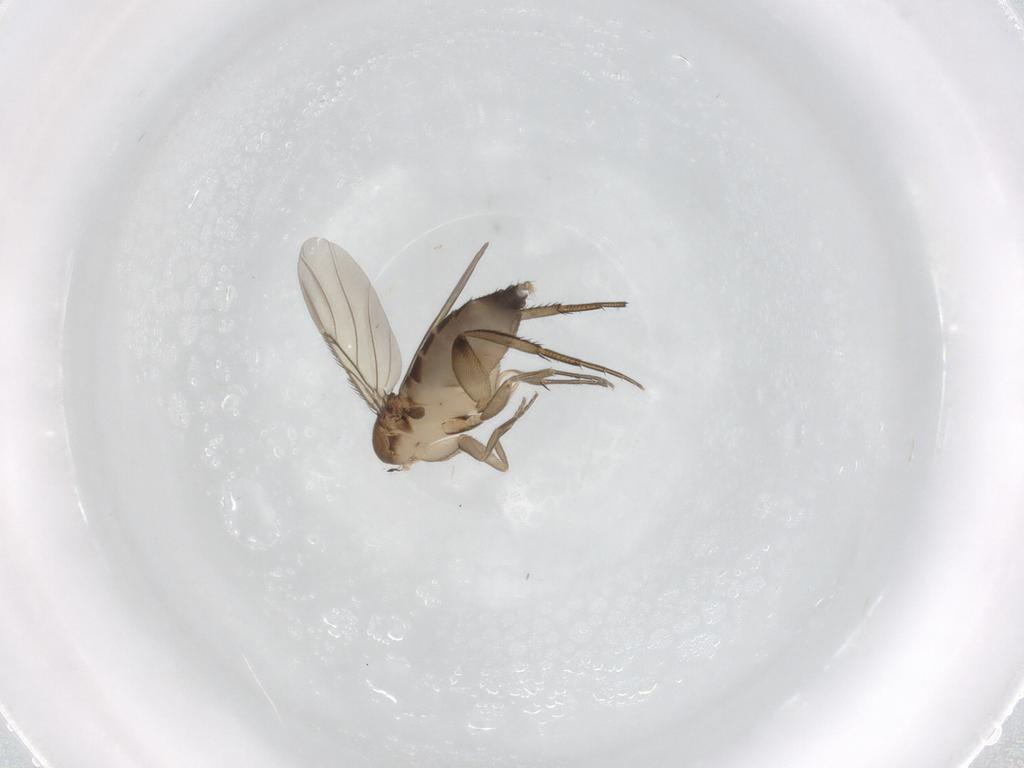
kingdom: Animalia
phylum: Arthropoda
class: Insecta
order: Diptera
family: Phoridae
